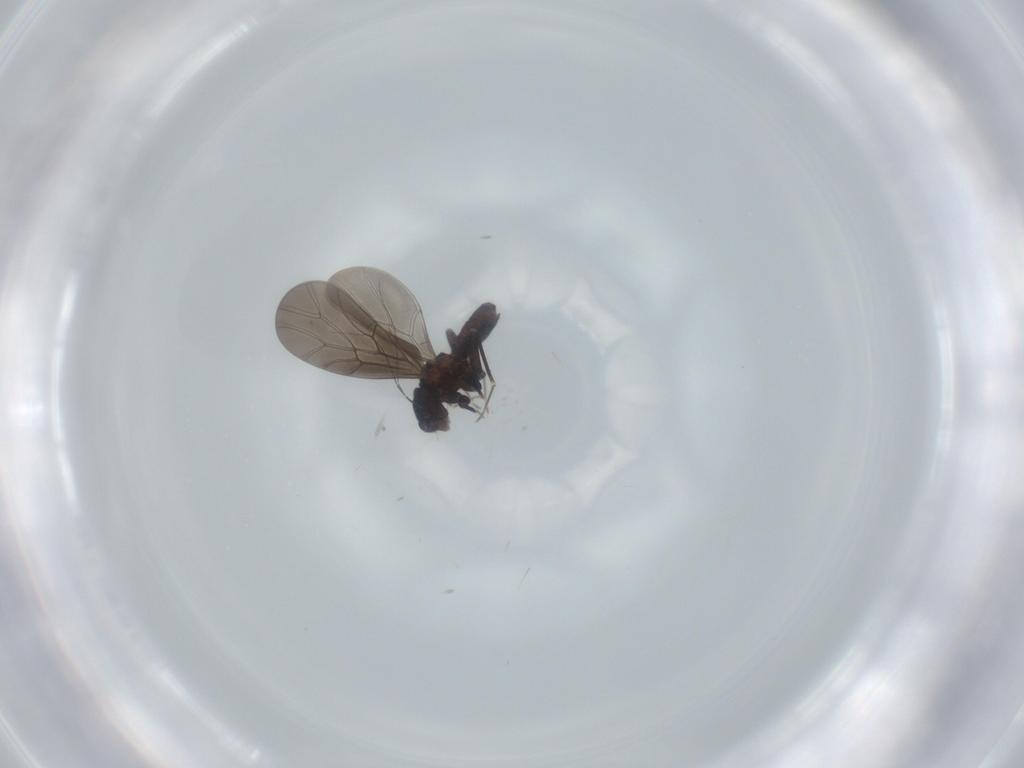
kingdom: Animalia
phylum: Arthropoda
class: Insecta
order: Psocodea
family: Lepidopsocidae
